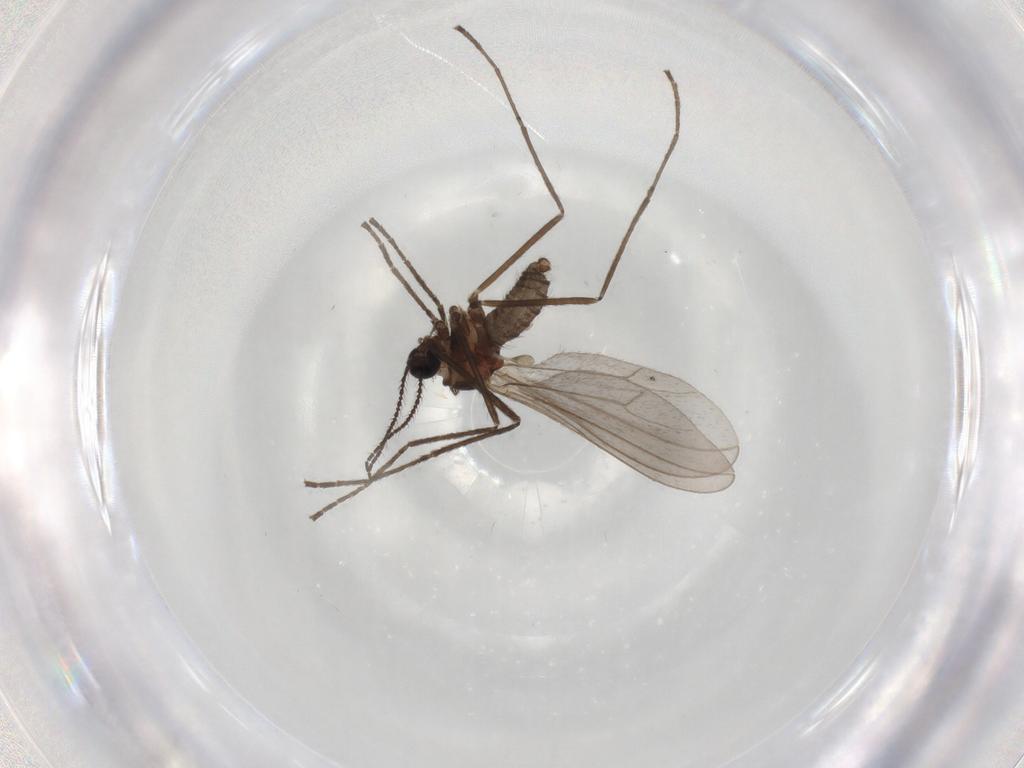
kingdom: Animalia
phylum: Arthropoda
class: Insecta
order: Diptera
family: Cecidomyiidae
